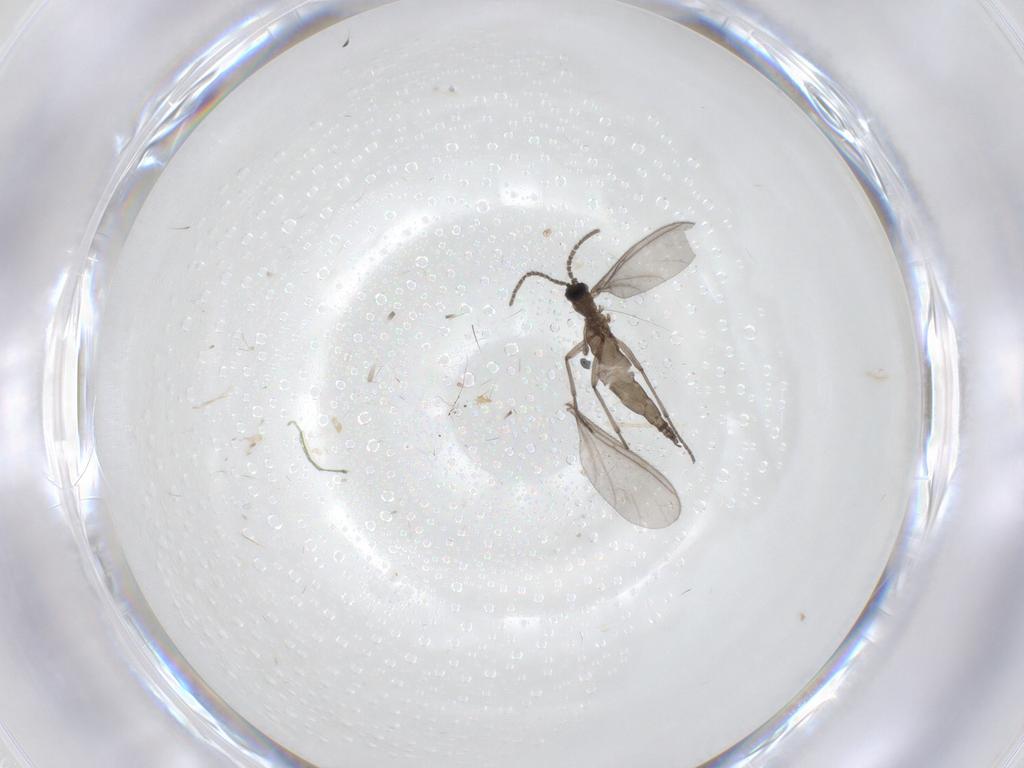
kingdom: Animalia
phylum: Arthropoda
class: Insecta
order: Diptera
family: Sciaridae
